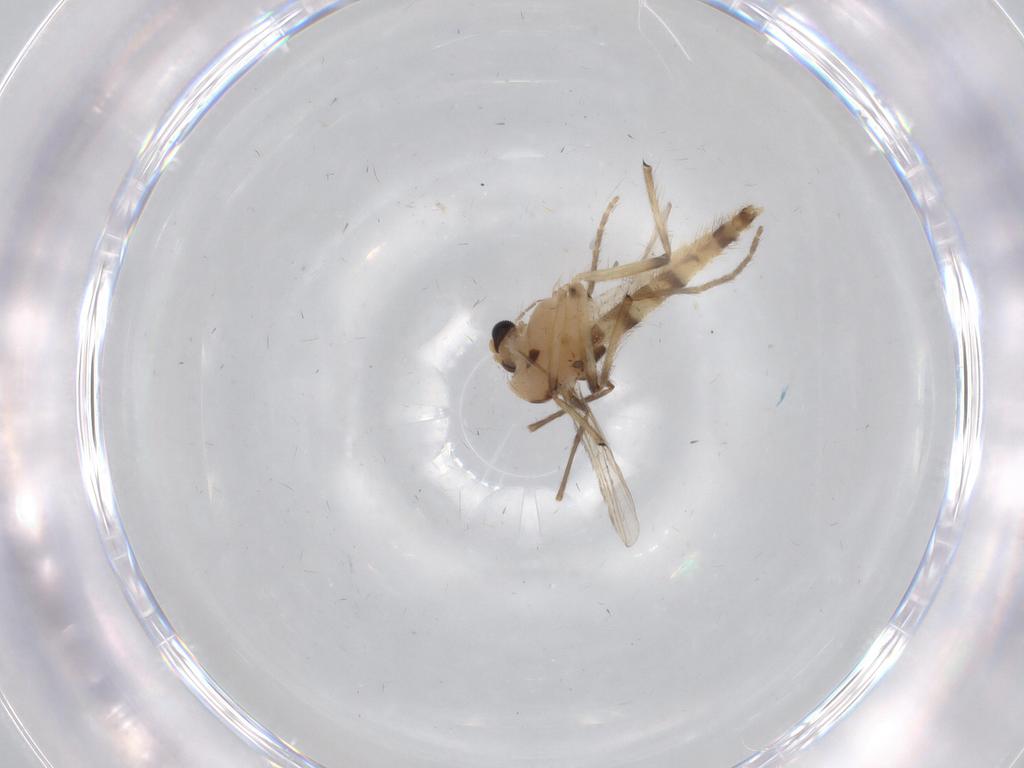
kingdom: Animalia
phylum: Arthropoda
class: Insecta
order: Diptera
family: Chironomidae
